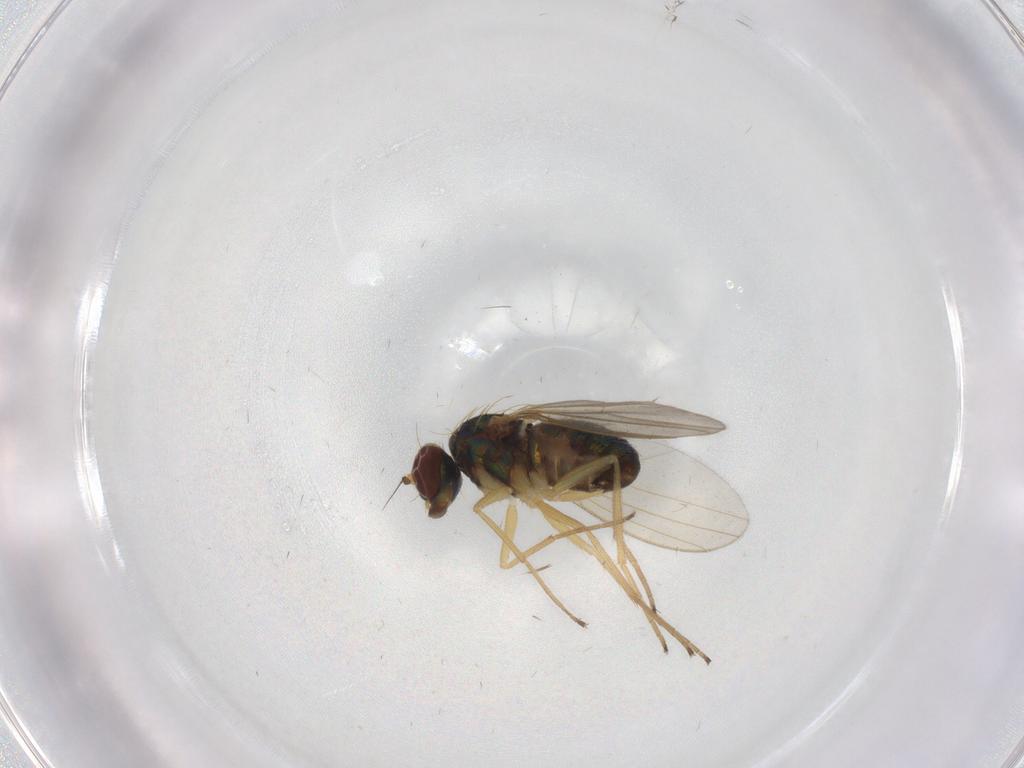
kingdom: Animalia
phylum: Arthropoda
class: Insecta
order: Diptera
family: Dolichopodidae
